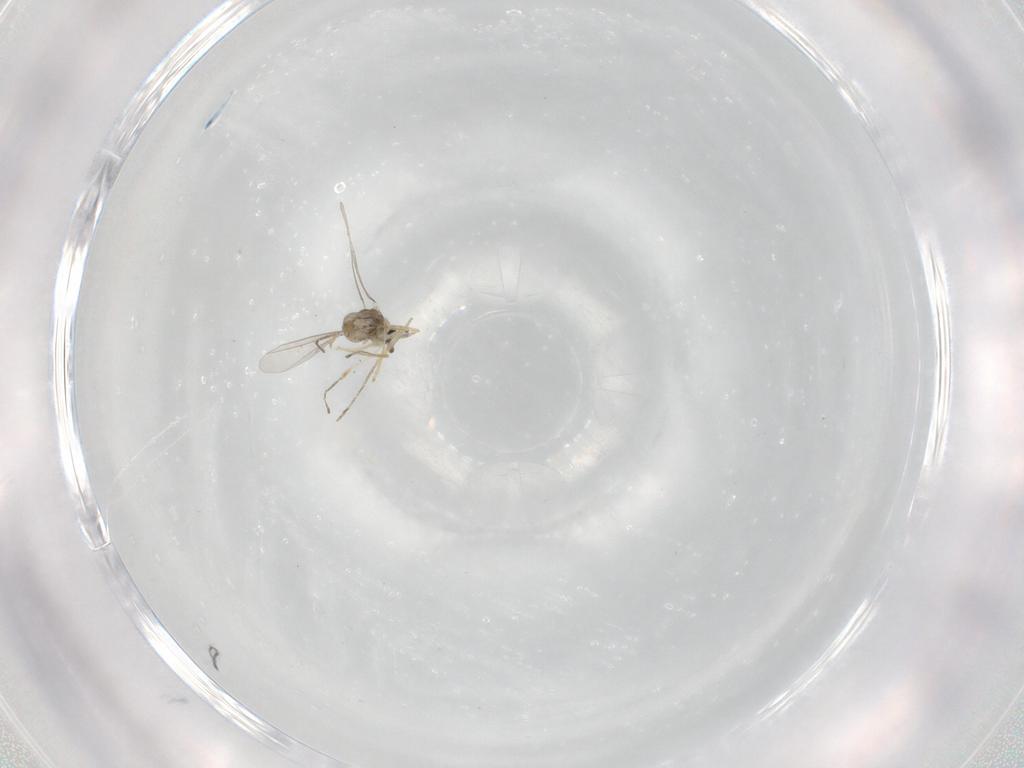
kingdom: Animalia
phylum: Arthropoda
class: Insecta
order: Diptera
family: Cecidomyiidae
